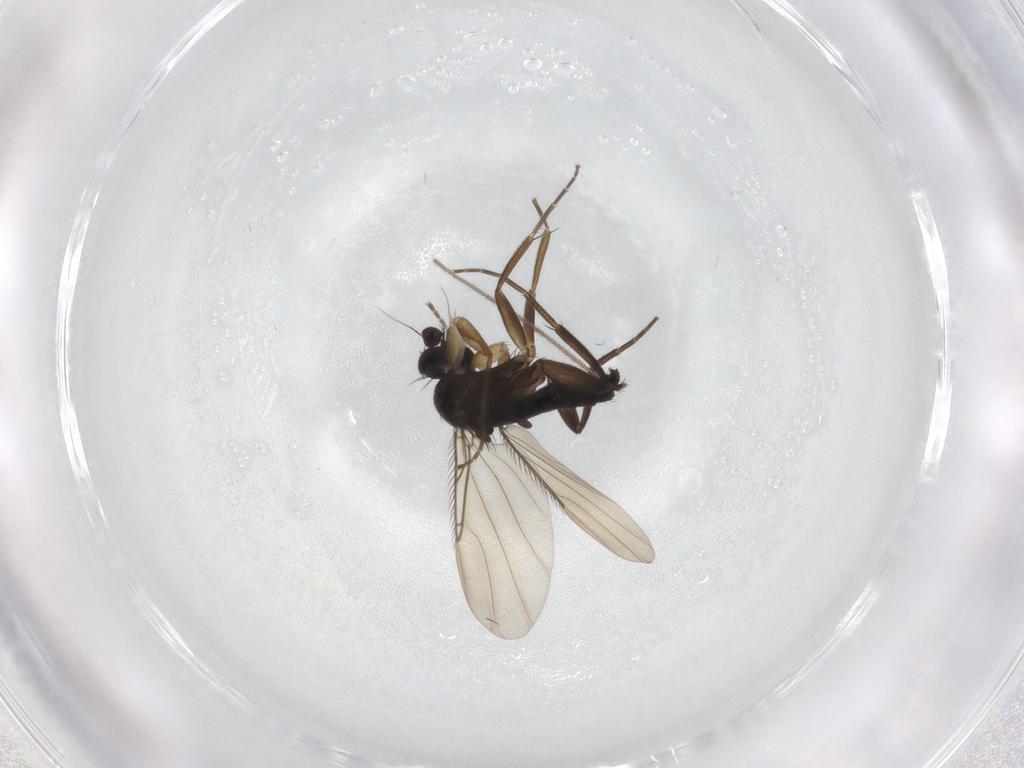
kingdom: Animalia
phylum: Arthropoda
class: Insecta
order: Diptera
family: Phoridae
